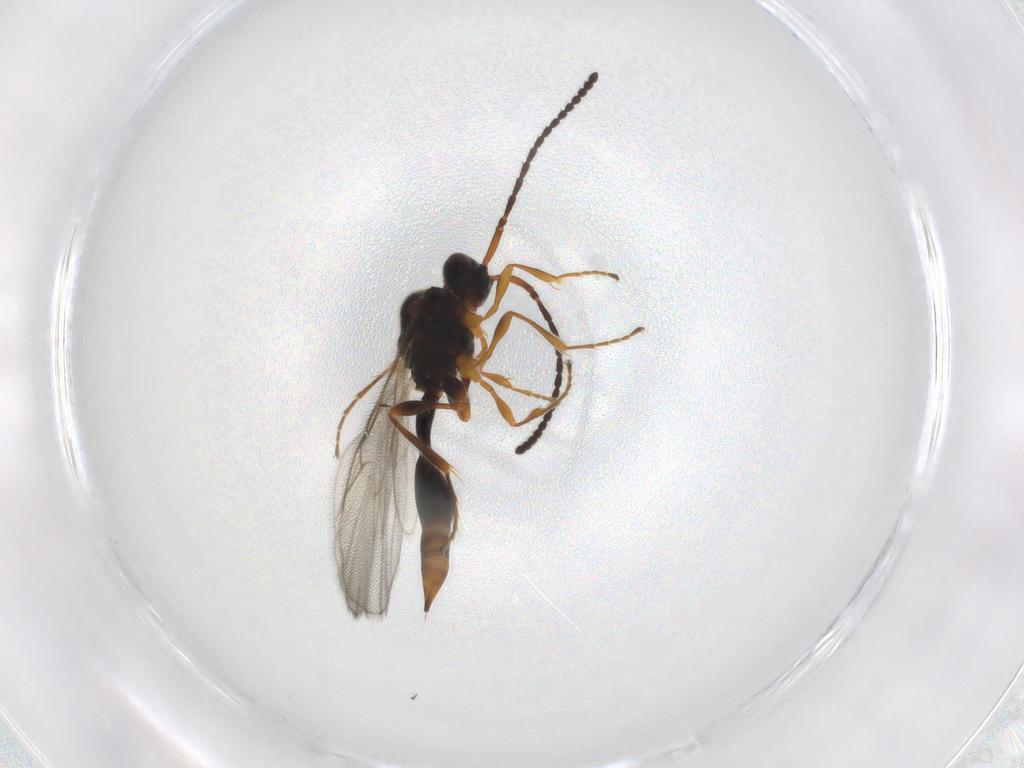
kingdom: Animalia
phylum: Arthropoda
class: Insecta
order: Hymenoptera
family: Diapriidae
